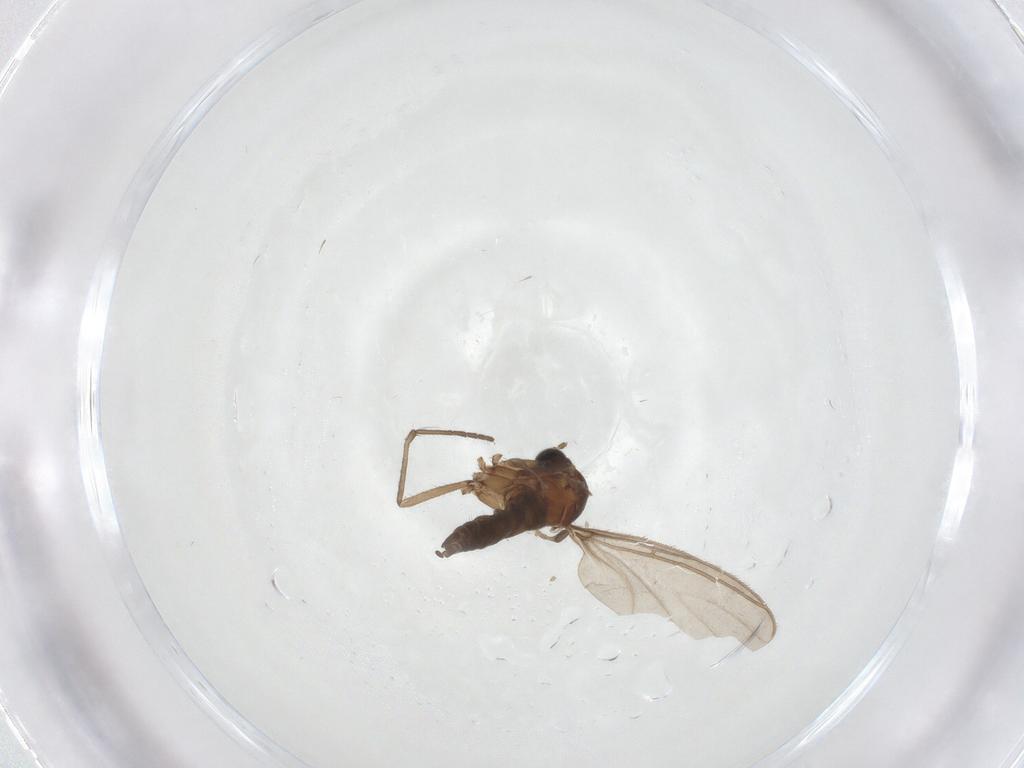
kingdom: Animalia
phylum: Arthropoda
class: Insecta
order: Diptera
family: Sciaridae
